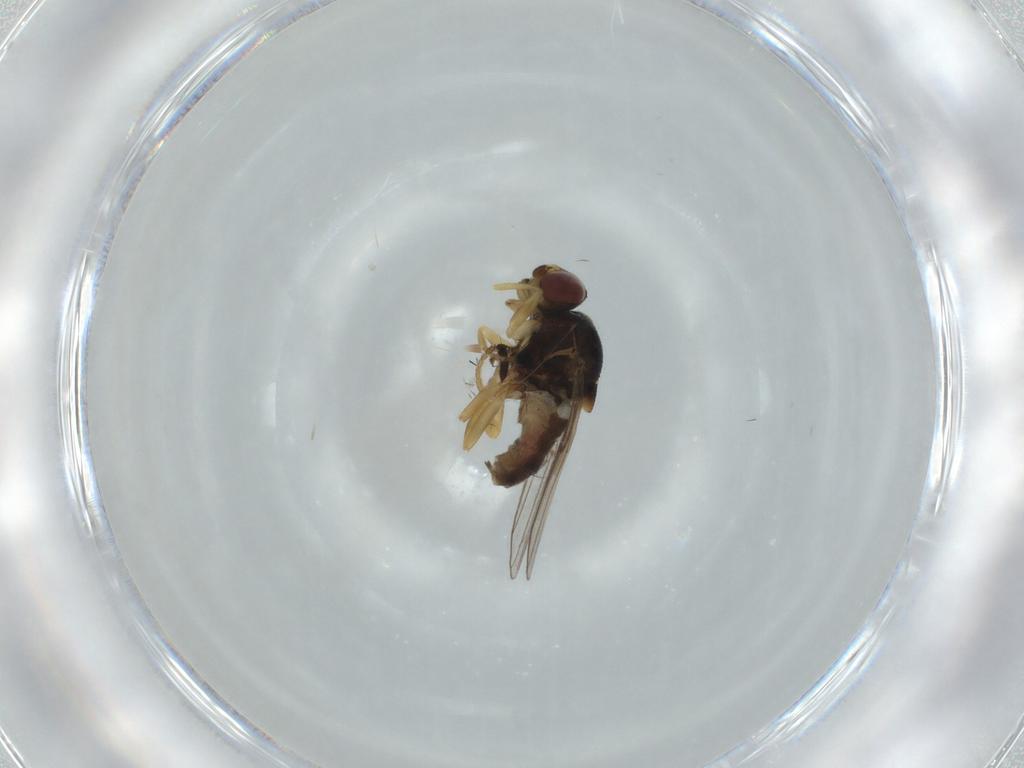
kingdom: Animalia
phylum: Arthropoda
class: Insecta
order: Diptera
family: Chloropidae
